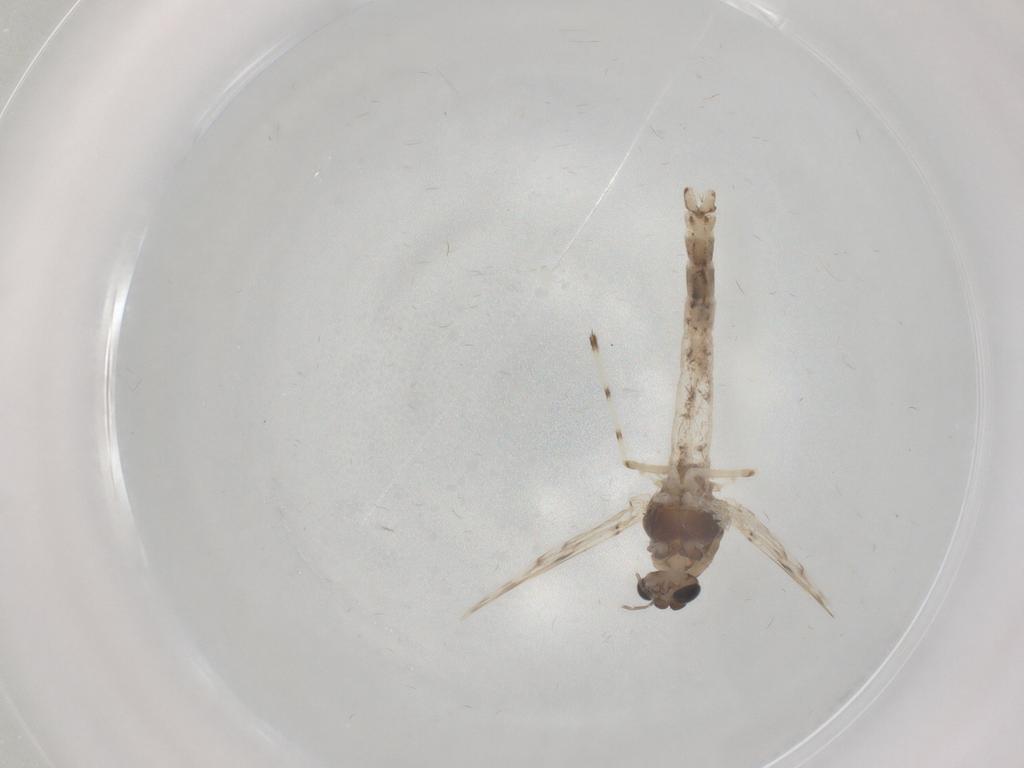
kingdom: Animalia
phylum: Arthropoda
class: Insecta
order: Diptera
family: Chironomidae
